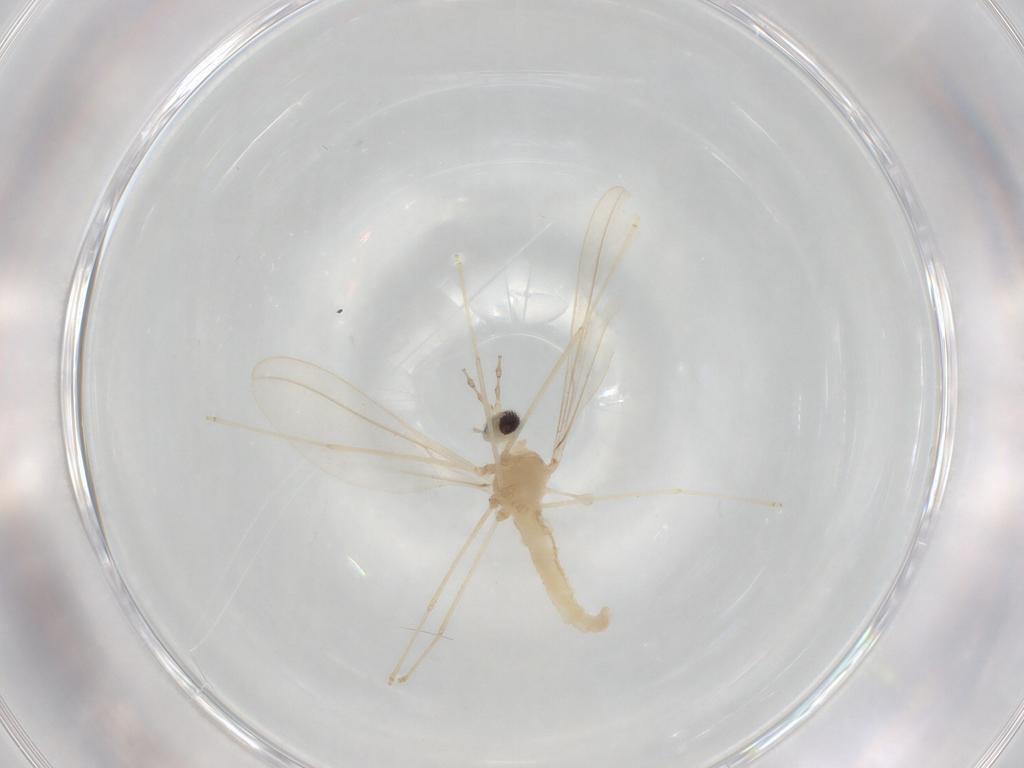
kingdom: Animalia
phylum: Arthropoda
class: Insecta
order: Diptera
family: Cecidomyiidae
